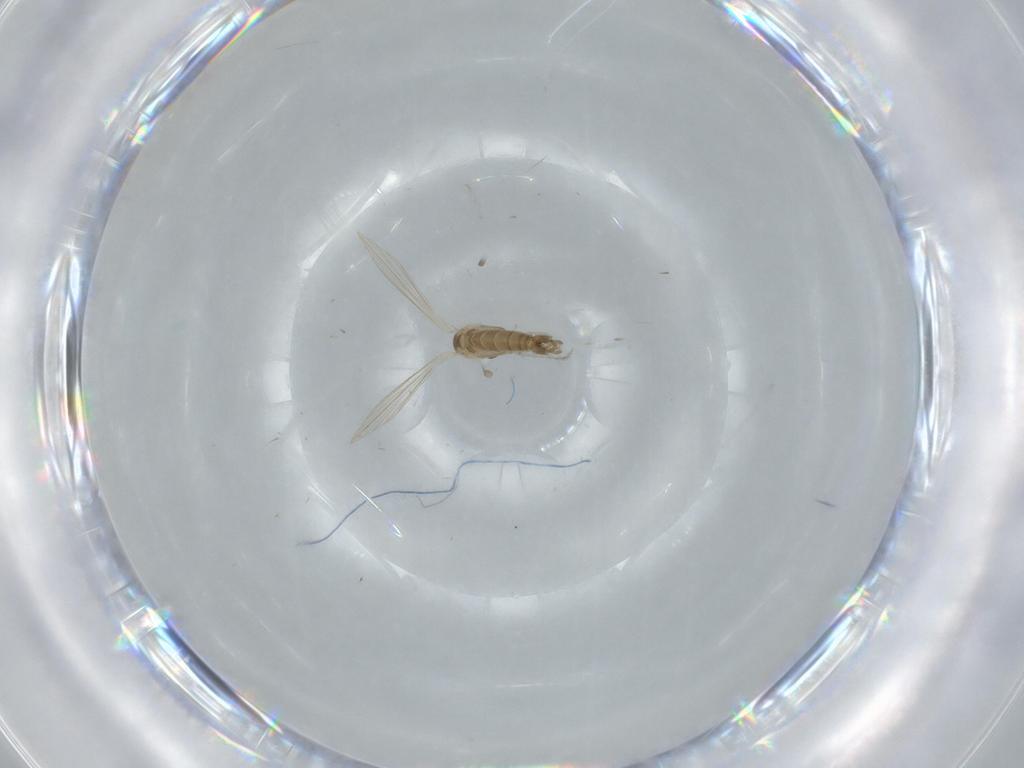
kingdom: Animalia
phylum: Arthropoda
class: Insecta
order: Diptera
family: Psychodidae
